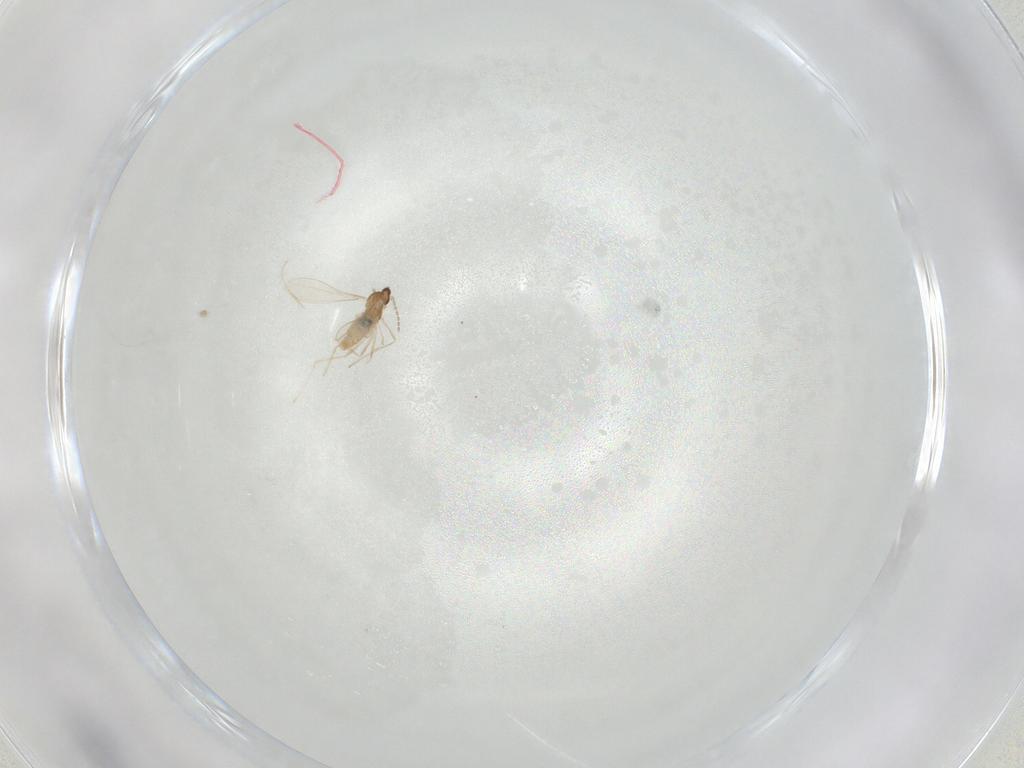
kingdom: Animalia
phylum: Arthropoda
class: Insecta
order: Diptera
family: Cecidomyiidae
